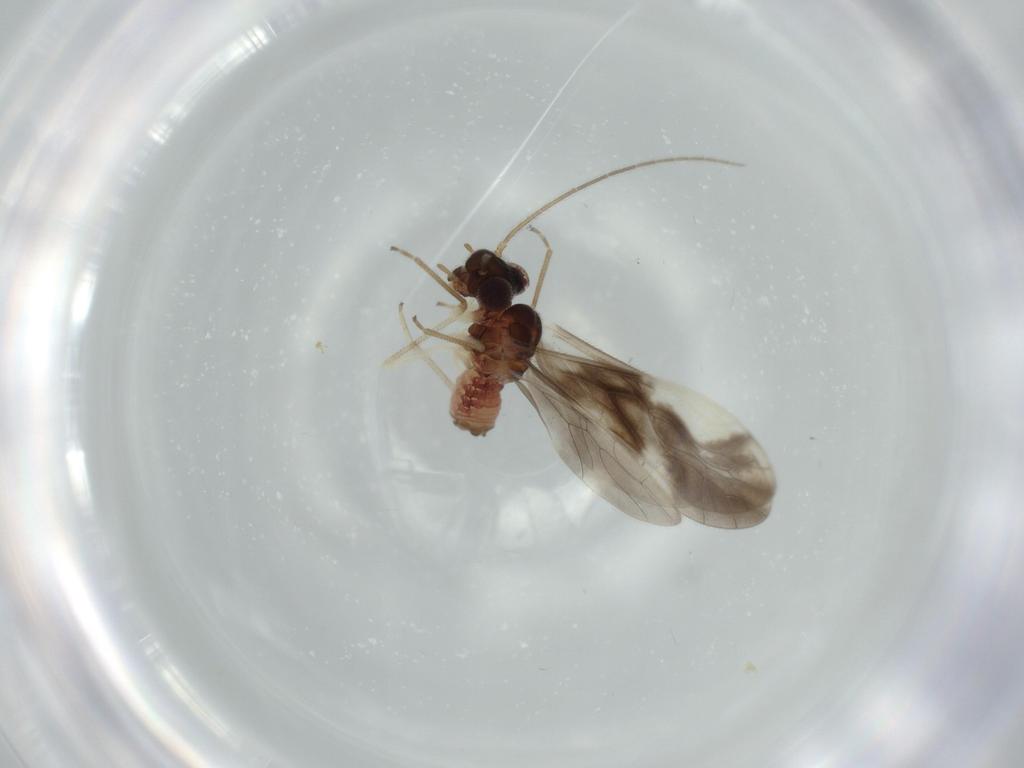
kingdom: Animalia
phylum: Arthropoda
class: Insecta
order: Psocodea
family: Caeciliusidae
